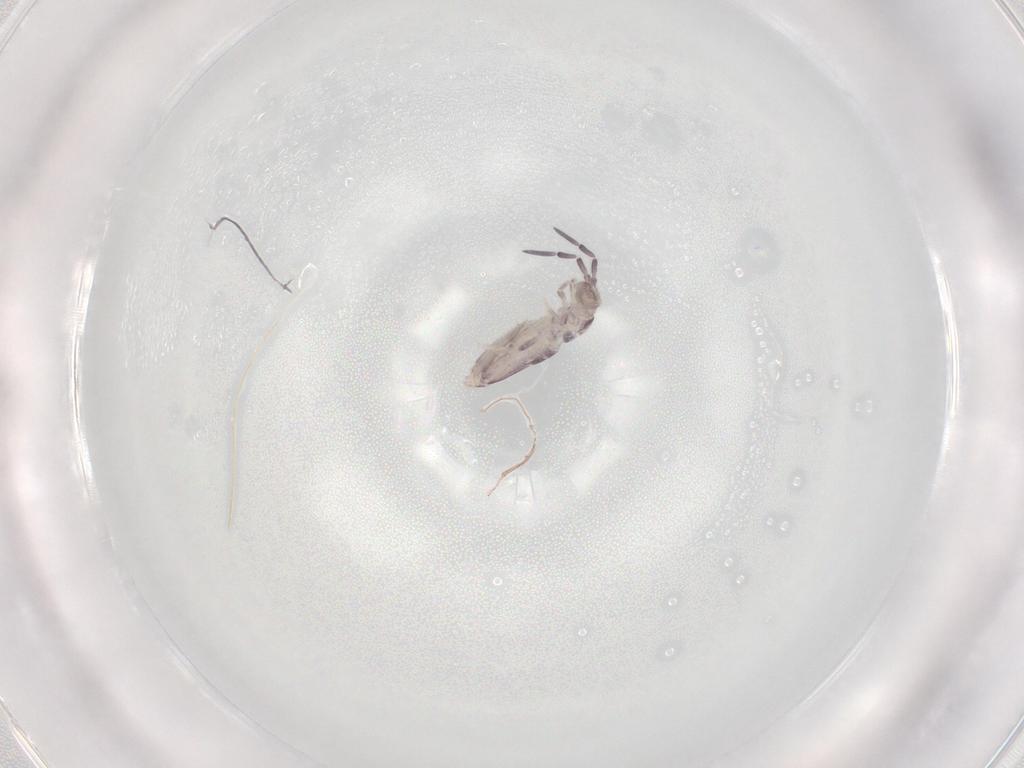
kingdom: Animalia
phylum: Arthropoda
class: Collembola
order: Poduromorpha
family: Hypogastruridae
